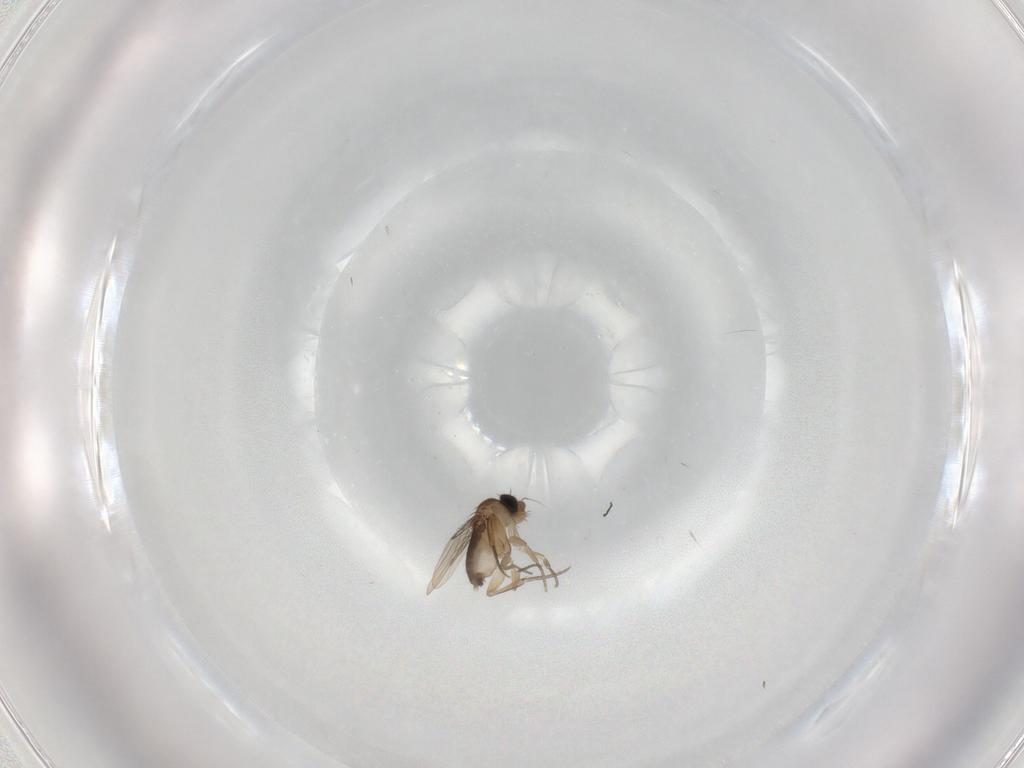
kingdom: Animalia
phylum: Arthropoda
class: Insecta
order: Diptera
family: Phoridae
